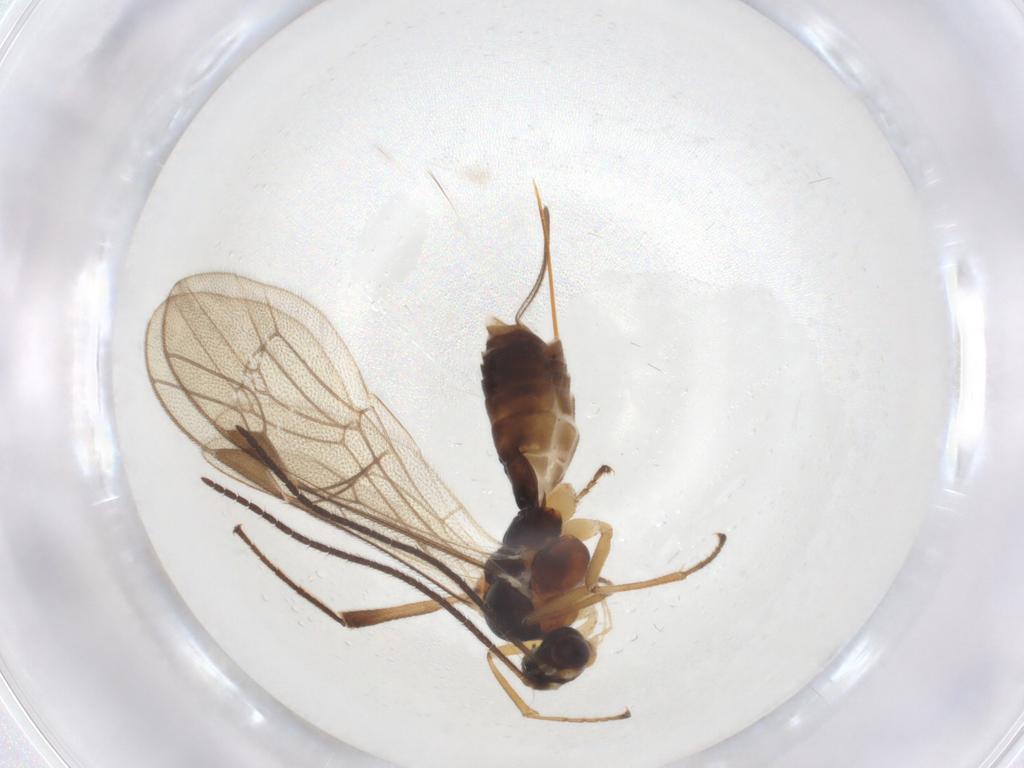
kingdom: Animalia
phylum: Arthropoda
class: Insecta
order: Hymenoptera
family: Ichneumonidae
